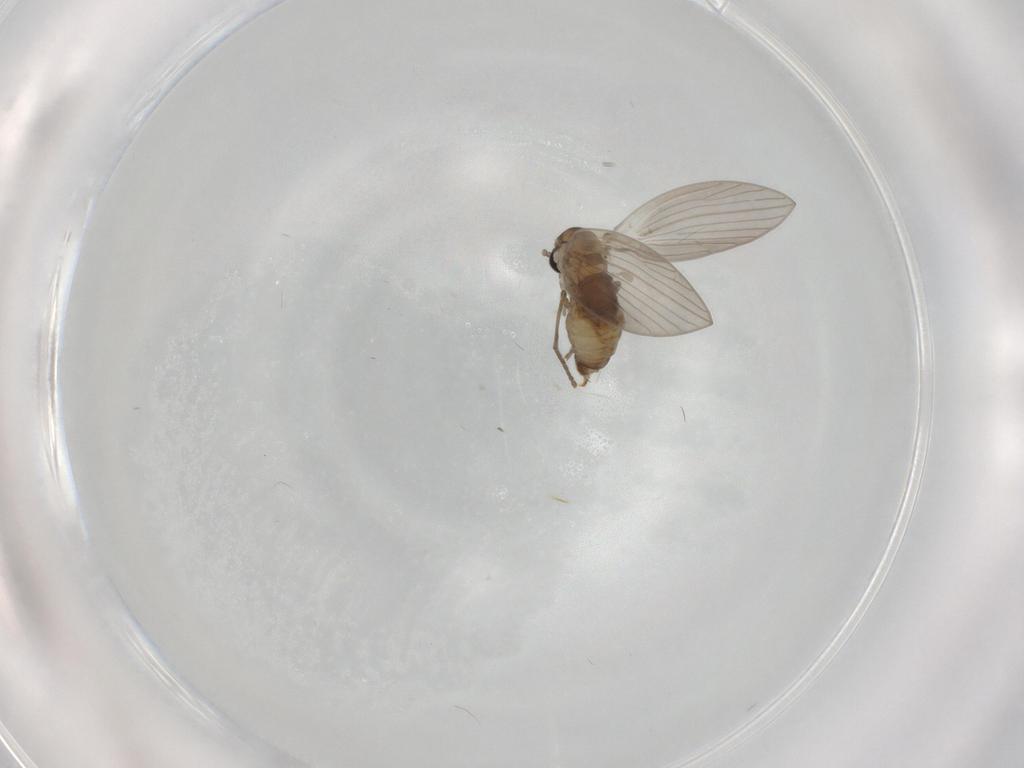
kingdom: Animalia
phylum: Arthropoda
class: Insecta
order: Diptera
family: Cecidomyiidae
